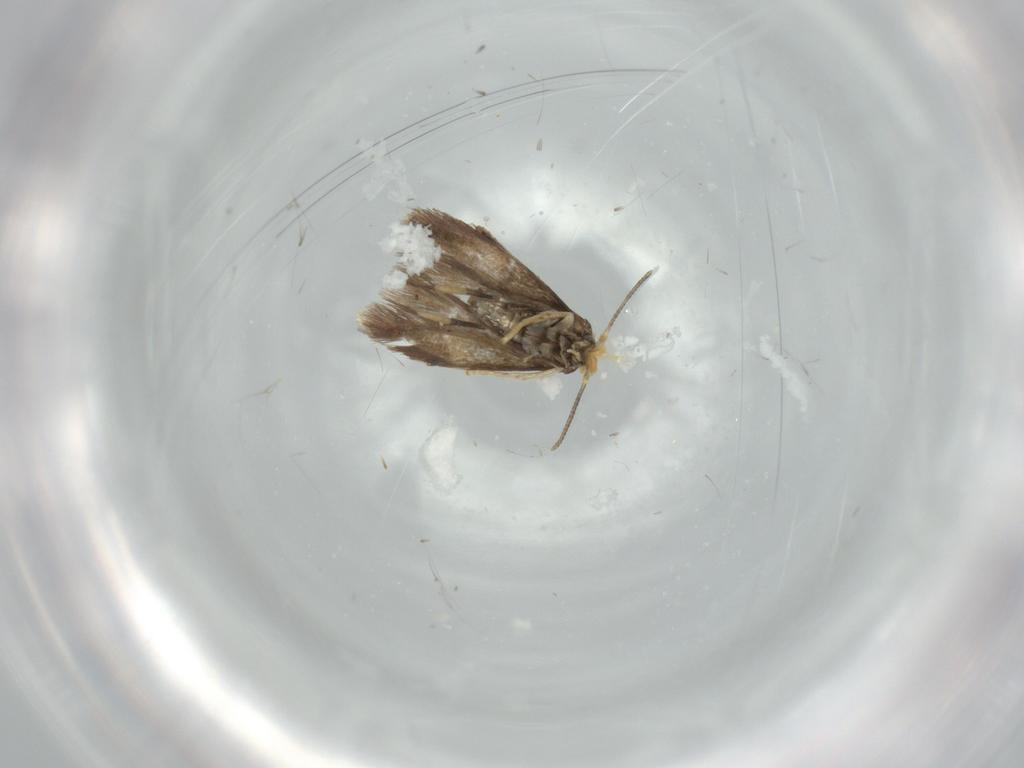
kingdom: Animalia
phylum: Arthropoda
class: Insecta
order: Lepidoptera
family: Nepticulidae
